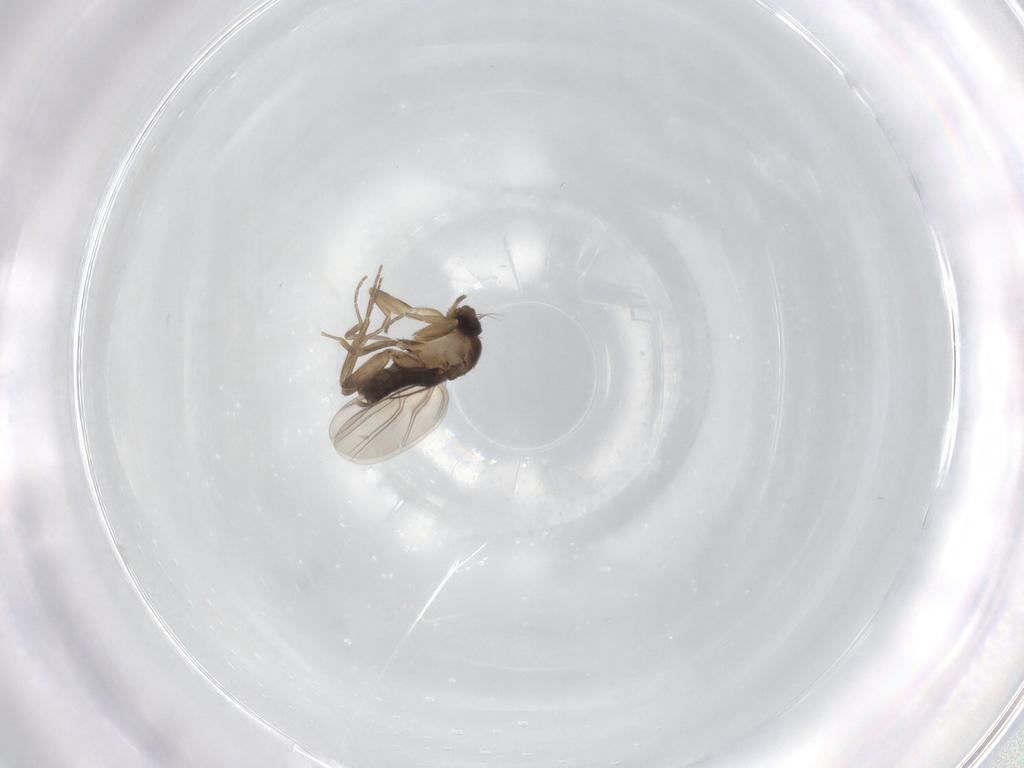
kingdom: Animalia
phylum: Arthropoda
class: Insecta
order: Diptera
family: Phoridae
